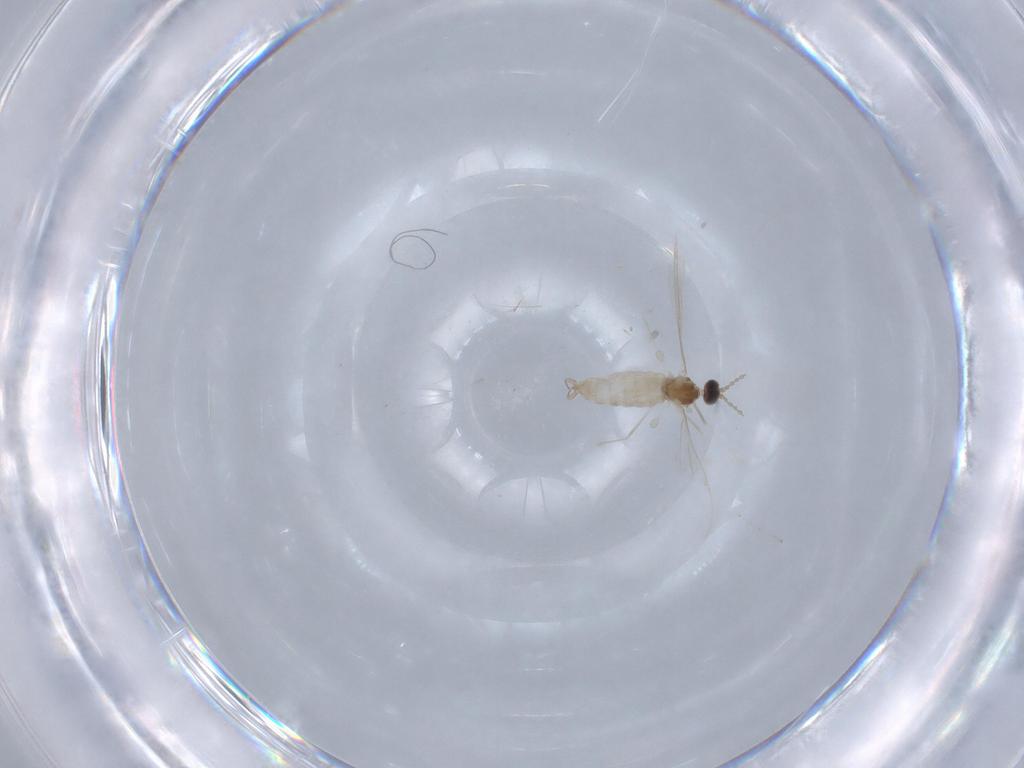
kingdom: Animalia
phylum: Arthropoda
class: Insecta
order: Diptera
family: Cecidomyiidae
